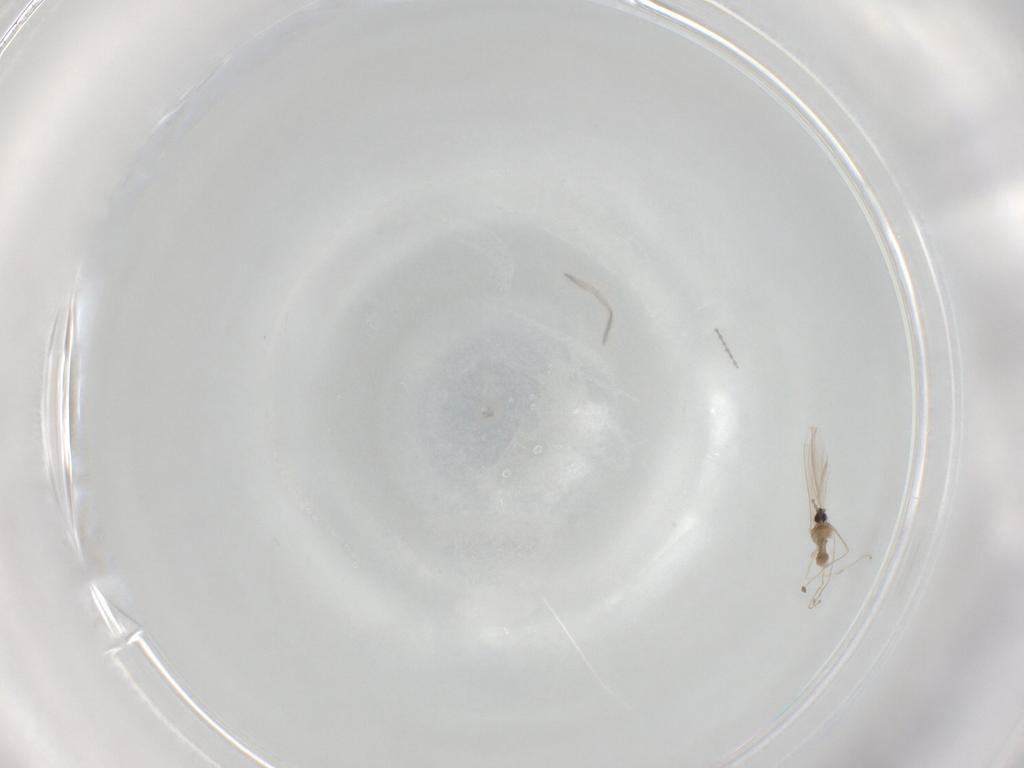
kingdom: Animalia
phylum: Arthropoda
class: Insecta
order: Diptera
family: Cecidomyiidae
